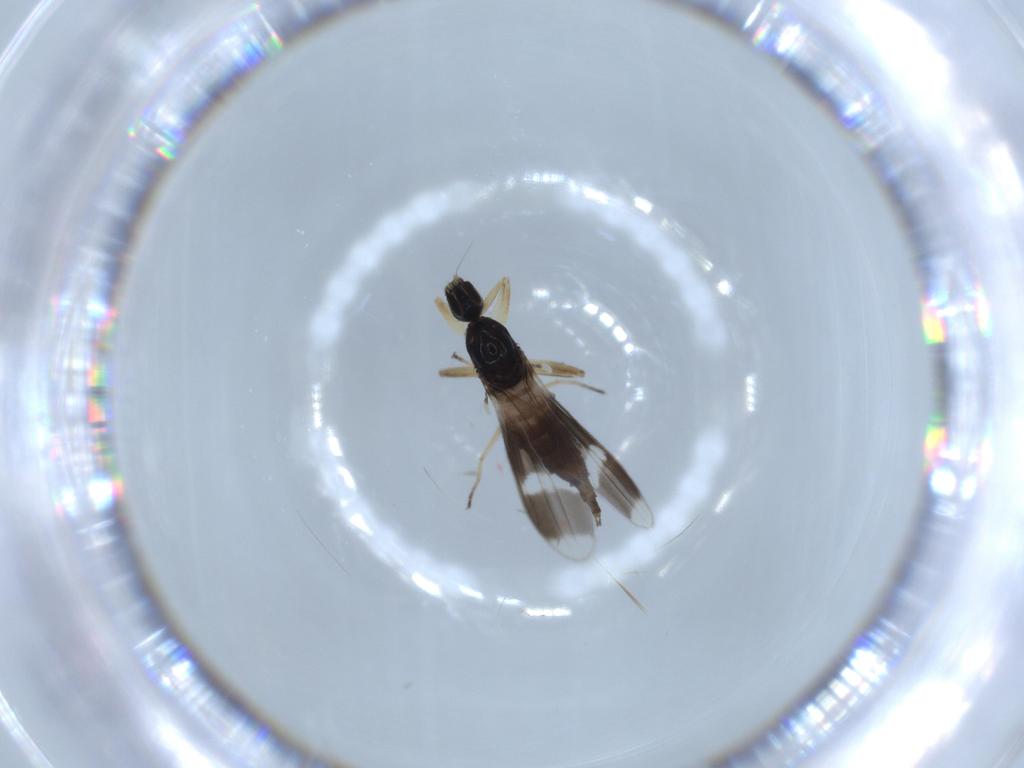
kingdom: Animalia
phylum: Arthropoda
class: Insecta
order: Diptera
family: Hybotidae
